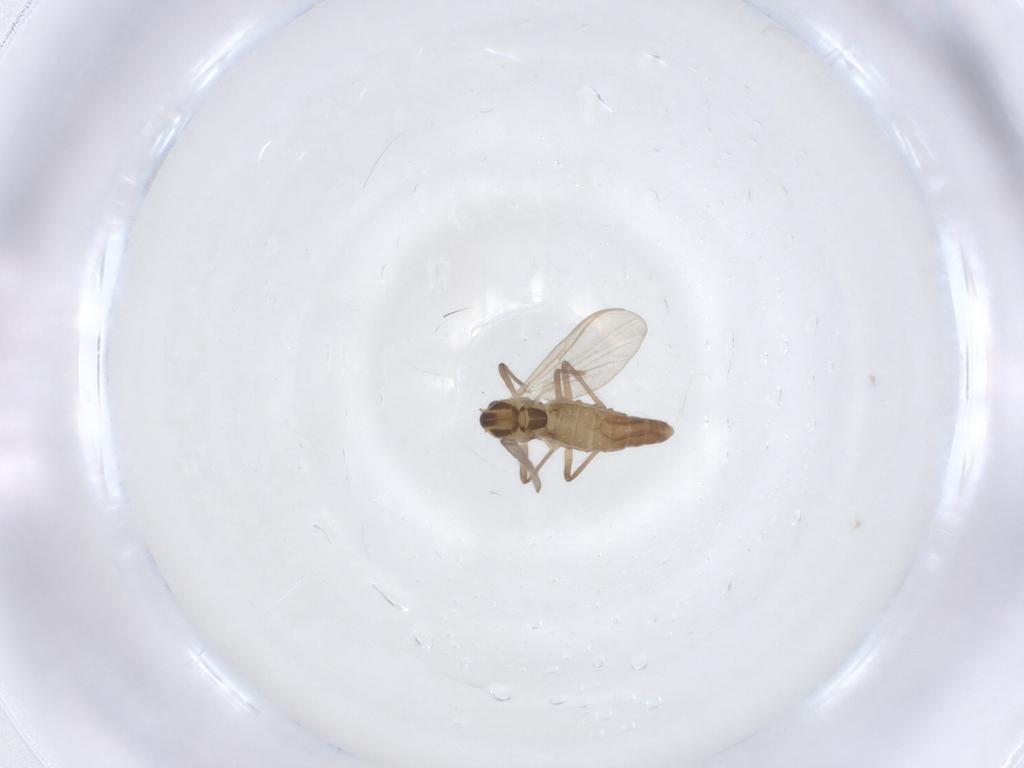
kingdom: Animalia
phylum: Arthropoda
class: Insecta
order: Diptera
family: Chironomidae
